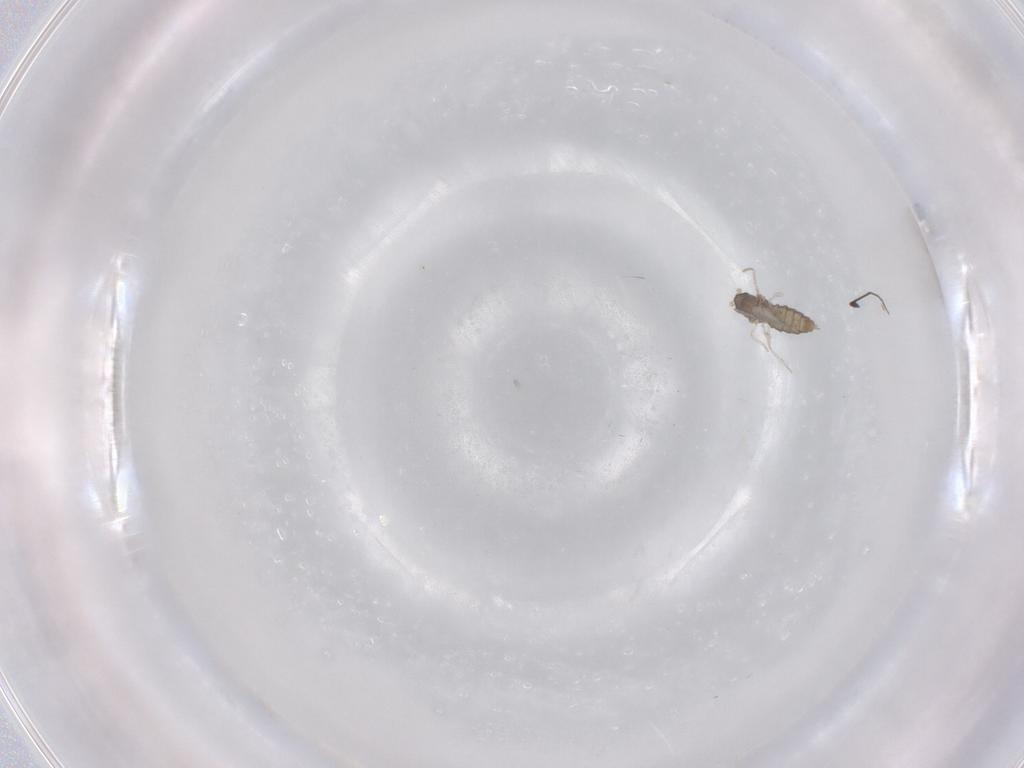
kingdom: Animalia
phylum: Arthropoda
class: Insecta
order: Diptera
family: Cecidomyiidae
